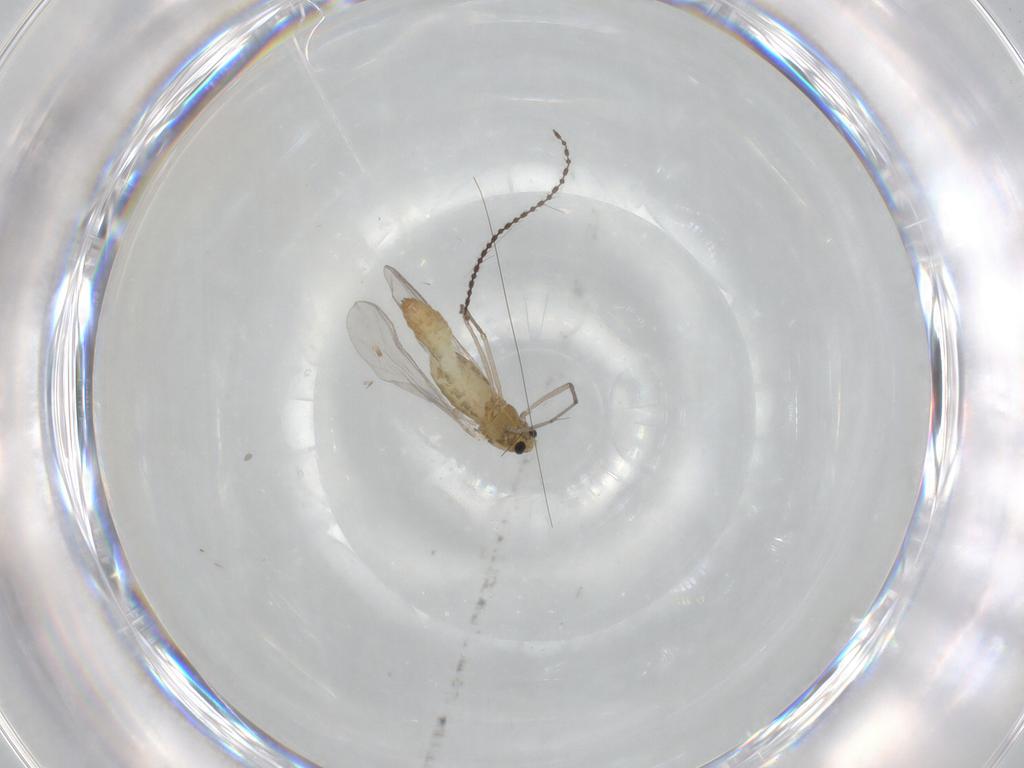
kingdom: Animalia
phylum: Arthropoda
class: Insecta
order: Diptera
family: Chironomidae
